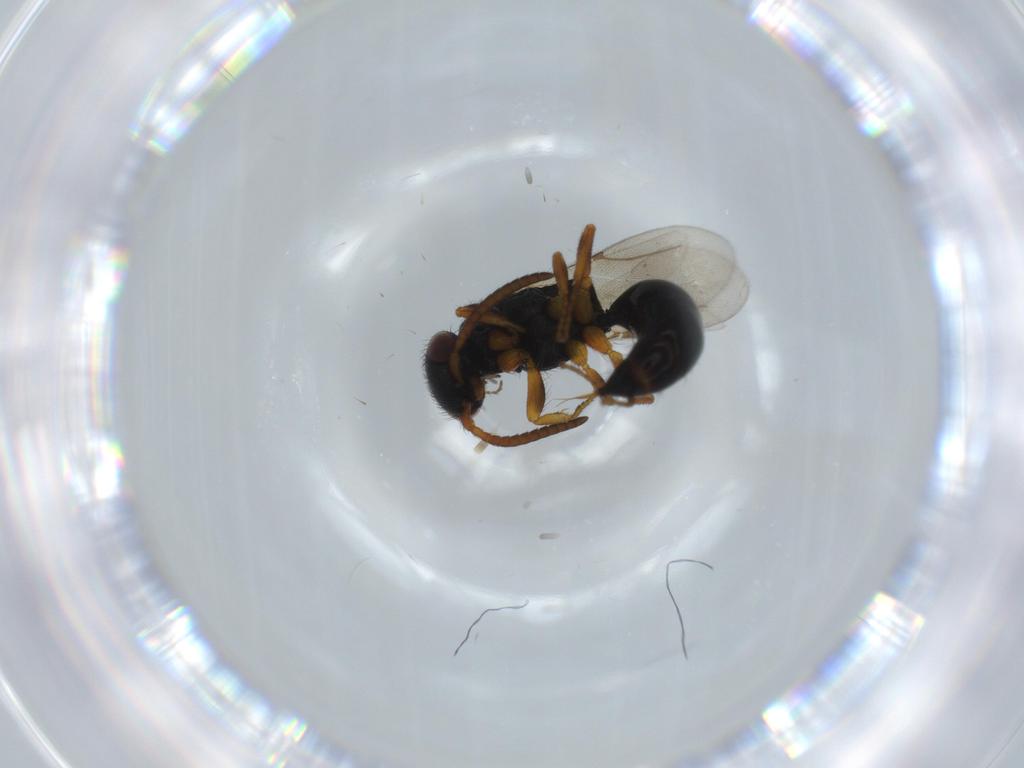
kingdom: Animalia
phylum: Arthropoda
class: Insecta
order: Hymenoptera
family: Bethylidae
